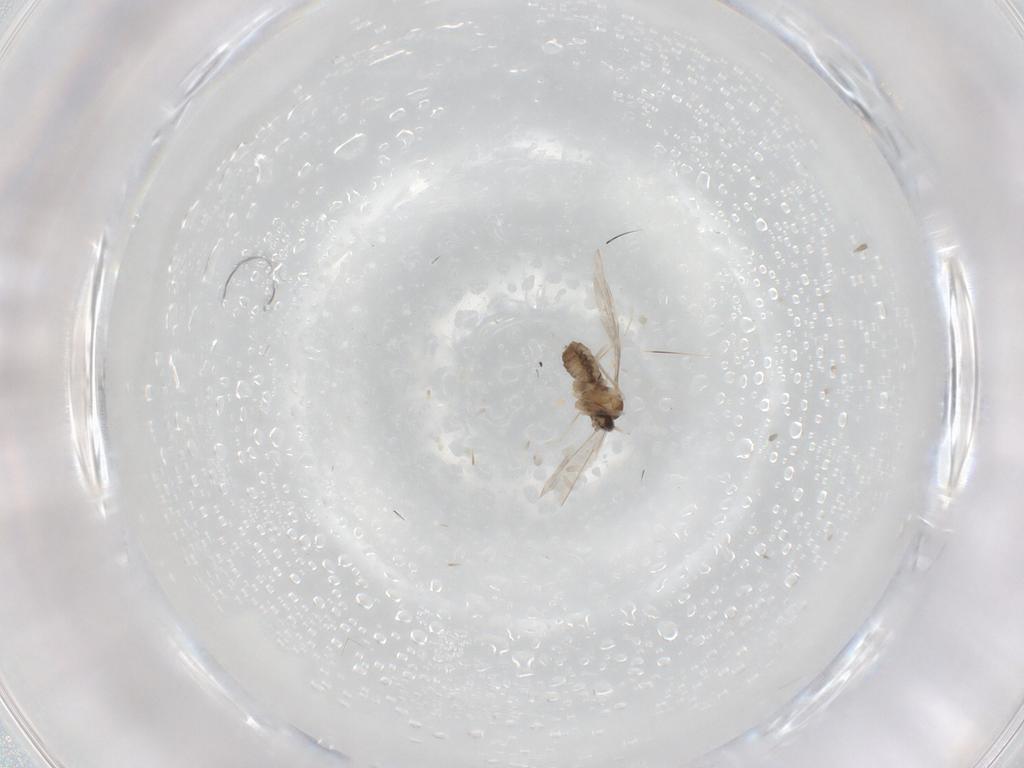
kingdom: Animalia
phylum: Arthropoda
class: Insecta
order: Diptera
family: Cecidomyiidae
